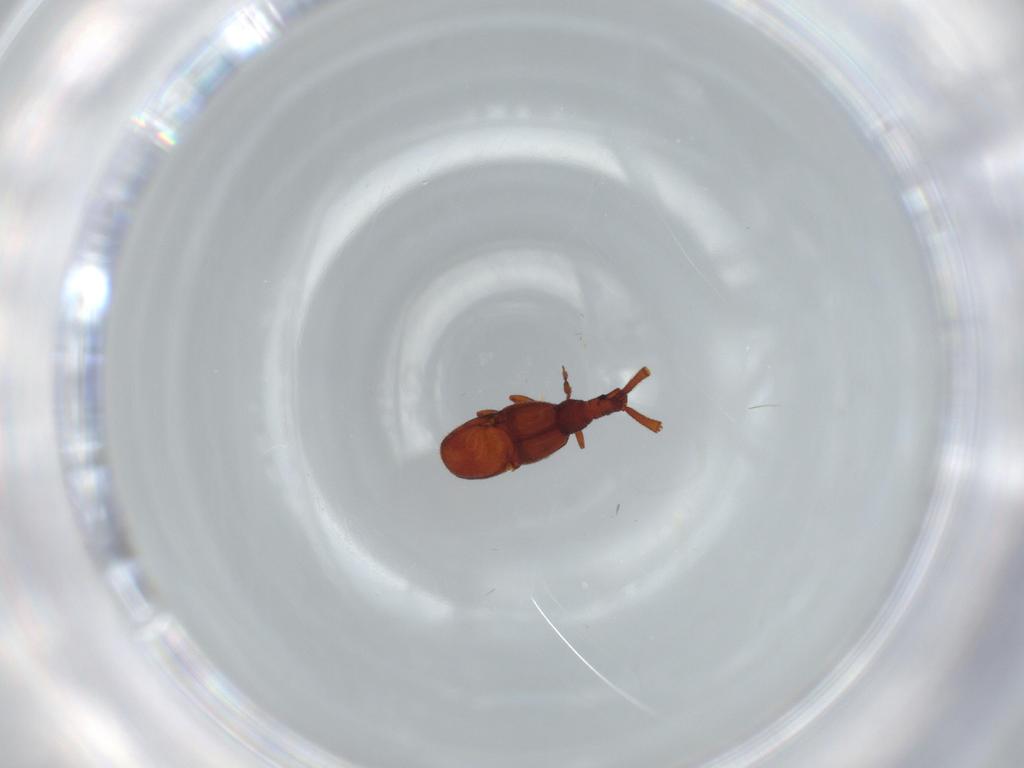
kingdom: Animalia
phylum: Arthropoda
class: Insecta
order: Coleoptera
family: Staphylinidae
